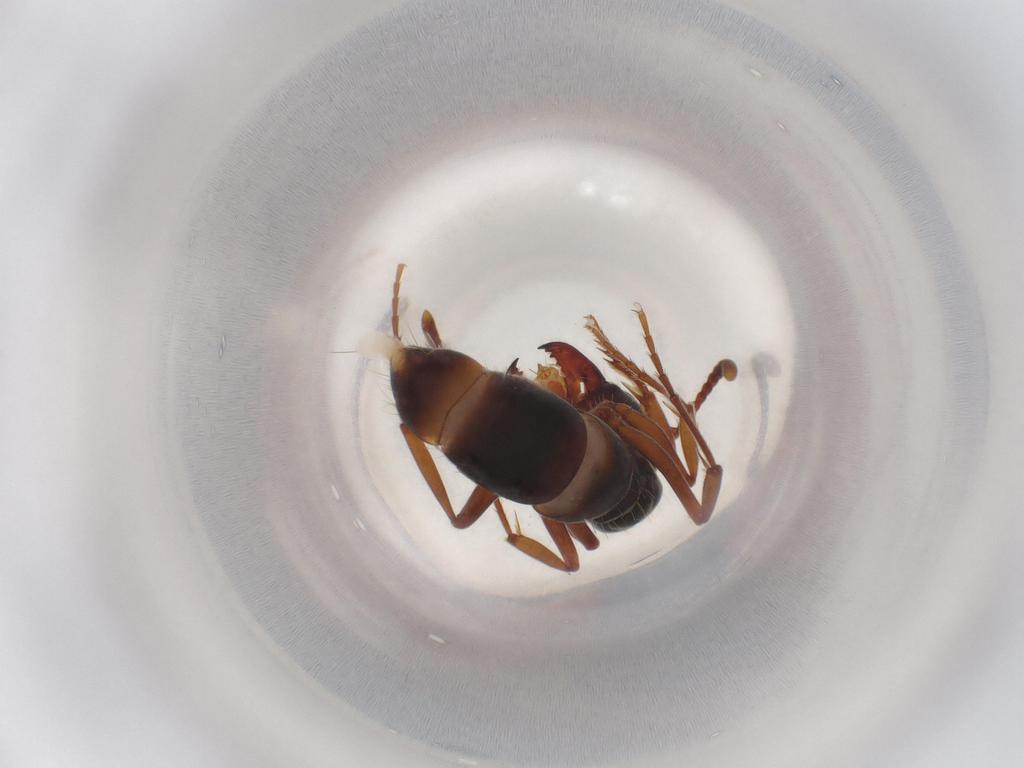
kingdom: Animalia
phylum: Arthropoda
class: Insecta
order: Hymenoptera
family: Formicidae
